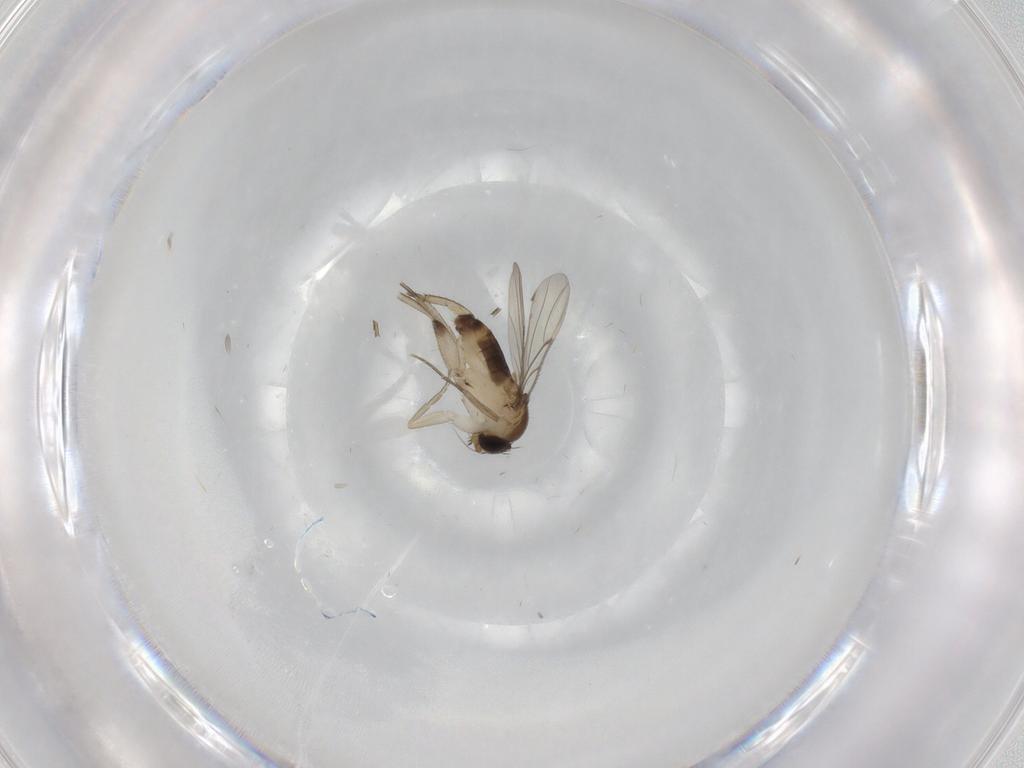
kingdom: Animalia
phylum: Arthropoda
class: Insecta
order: Diptera
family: Phoridae
